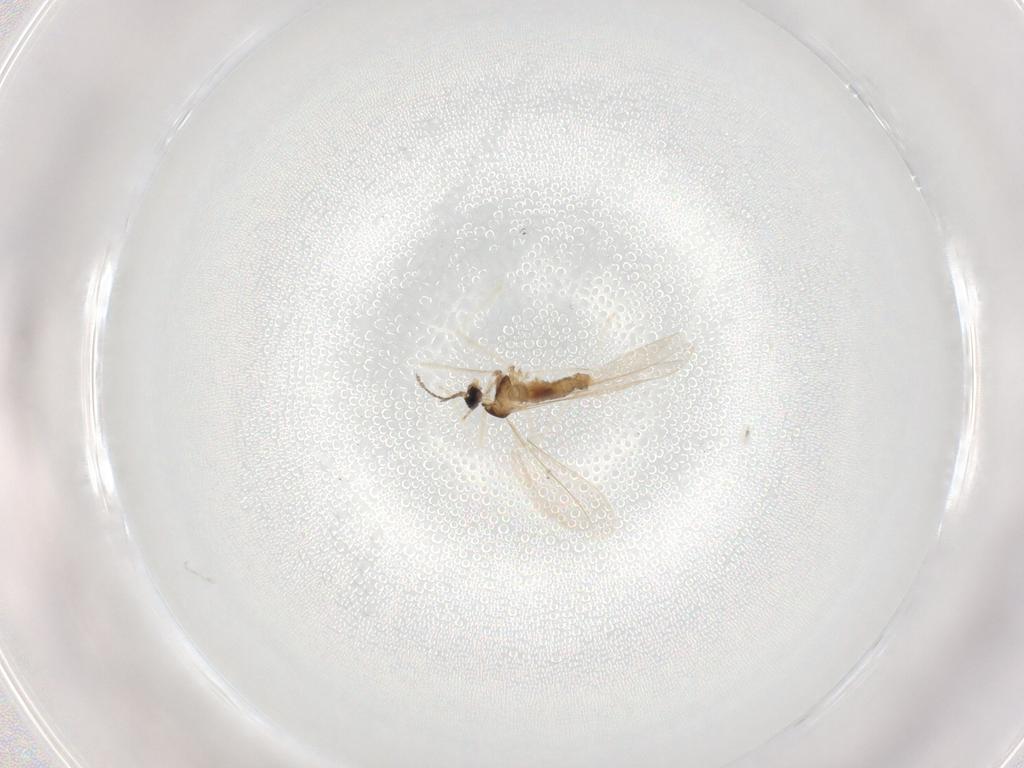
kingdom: Animalia
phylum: Arthropoda
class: Insecta
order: Diptera
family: Cecidomyiidae
